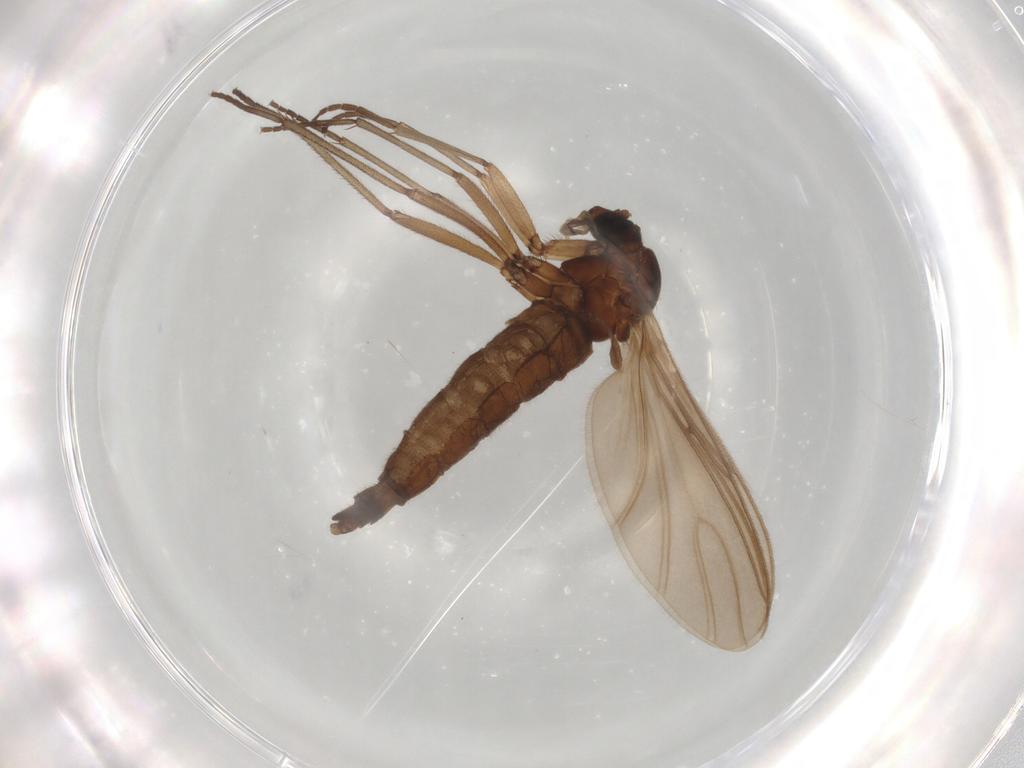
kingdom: Animalia
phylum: Arthropoda
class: Insecta
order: Diptera
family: Sciaridae
